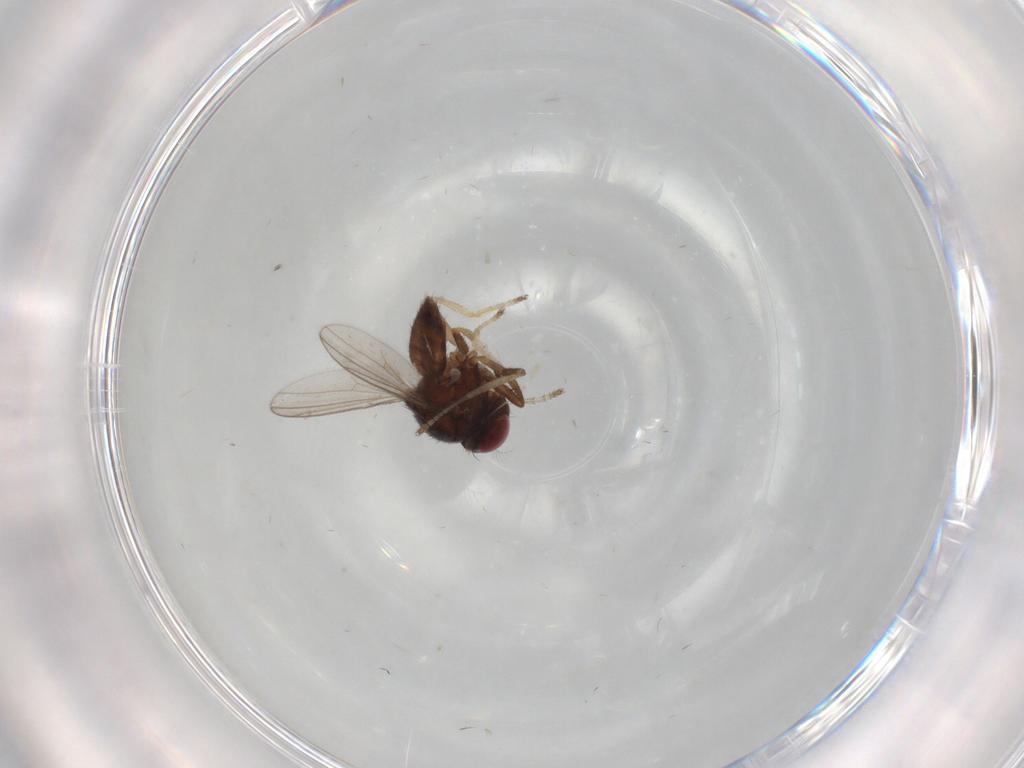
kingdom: Animalia
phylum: Arthropoda
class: Insecta
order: Diptera
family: Ephydridae
